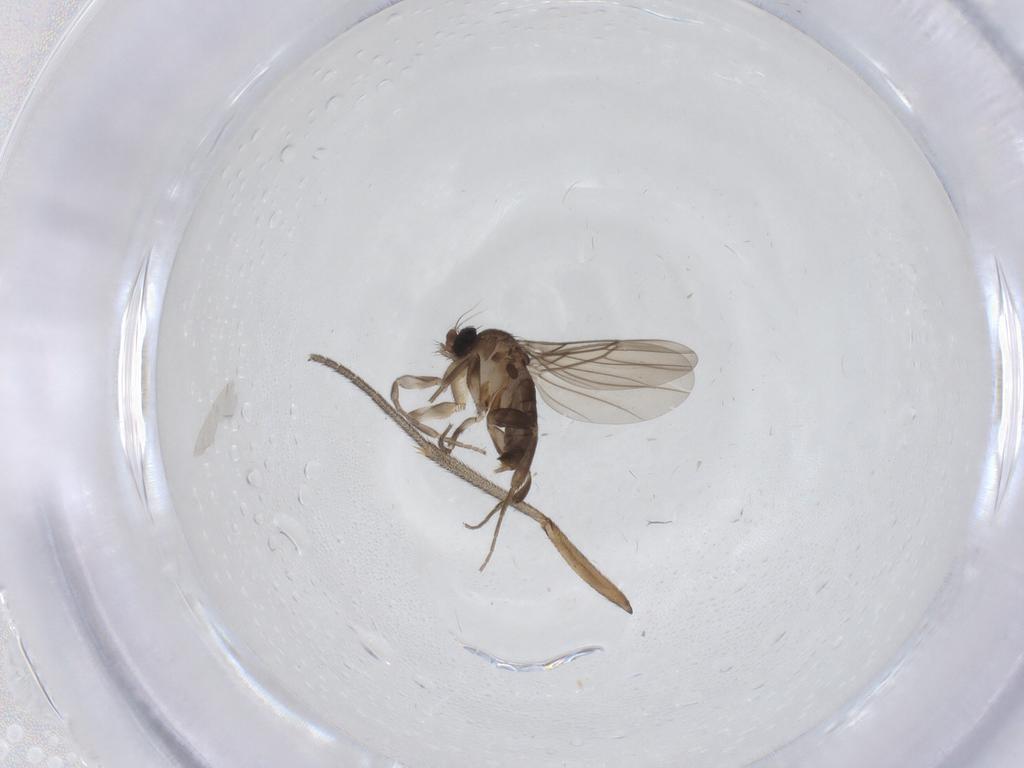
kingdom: Animalia
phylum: Arthropoda
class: Insecta
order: Diptera
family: Mycetophilidae
